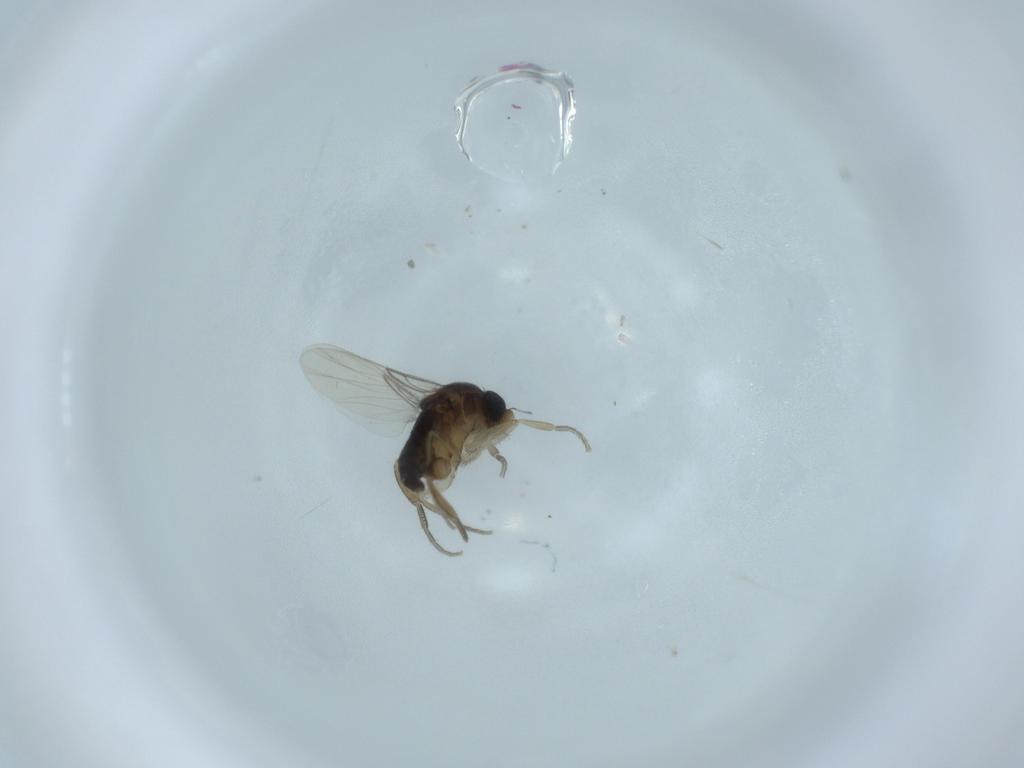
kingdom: Animalia
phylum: Arthropoda
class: Insecta
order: Diptera
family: Phoridae
